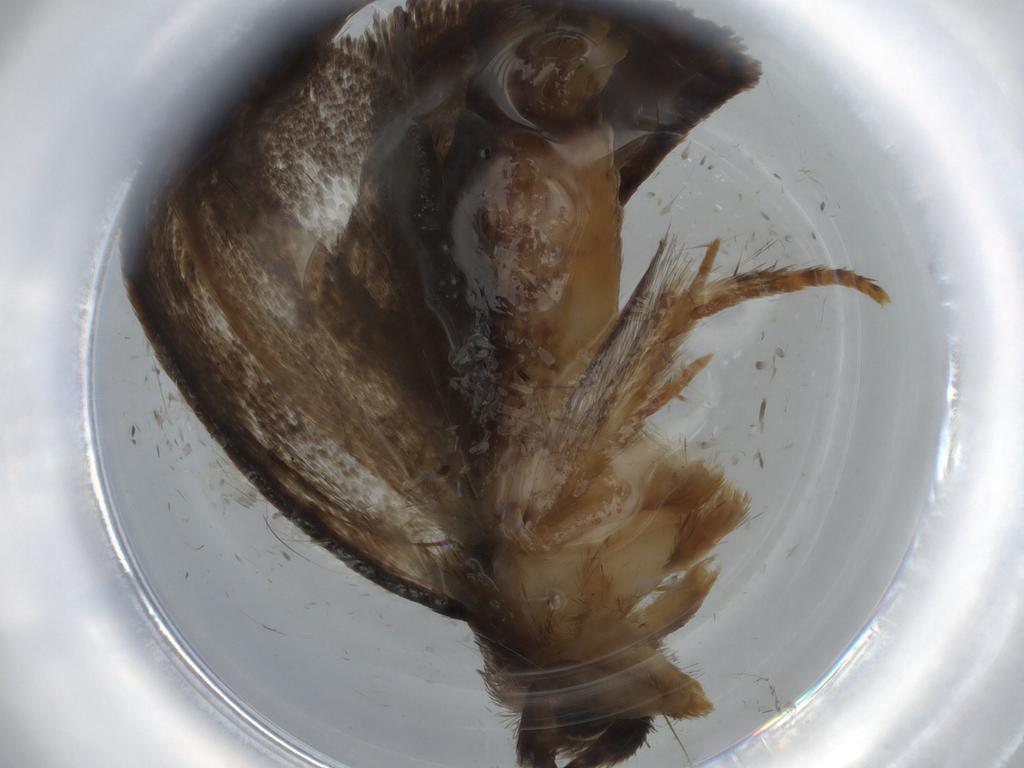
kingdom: Animalia
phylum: Arthropoda
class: Insecta
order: Lepidoptera
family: Tineidae
